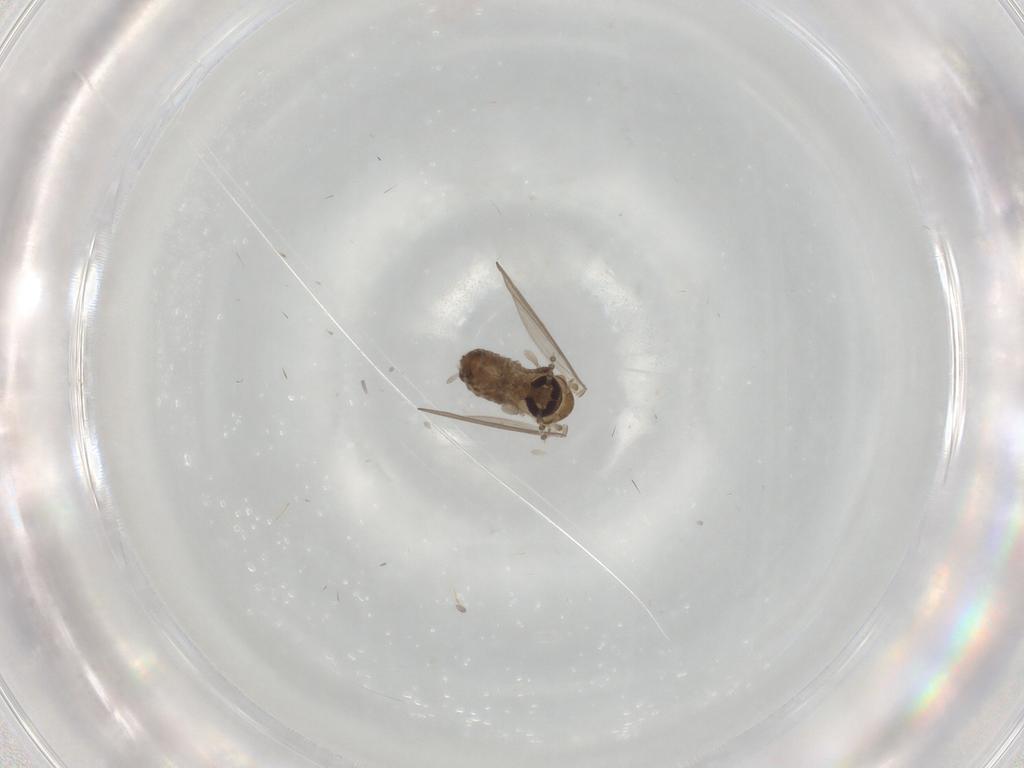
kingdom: Animalia
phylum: Arthropoda
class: Insecta
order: Diptera
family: Psychodidae
